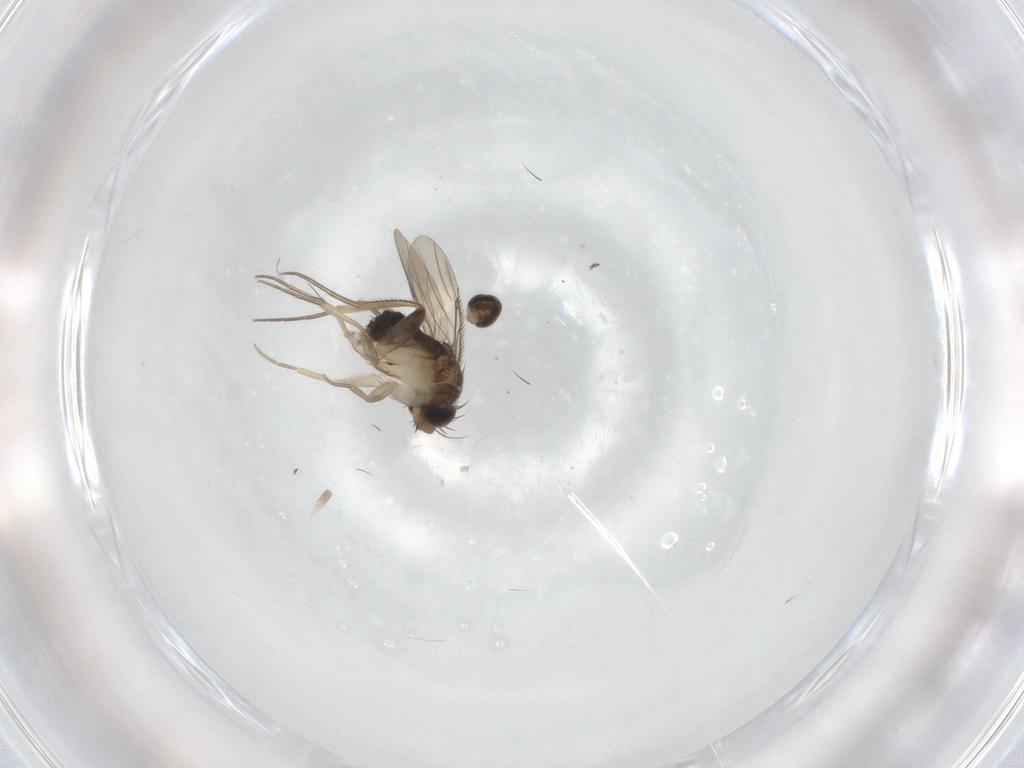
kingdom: Animalia
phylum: Arthropoda
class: Insecta
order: Diptera
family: Phoridae
